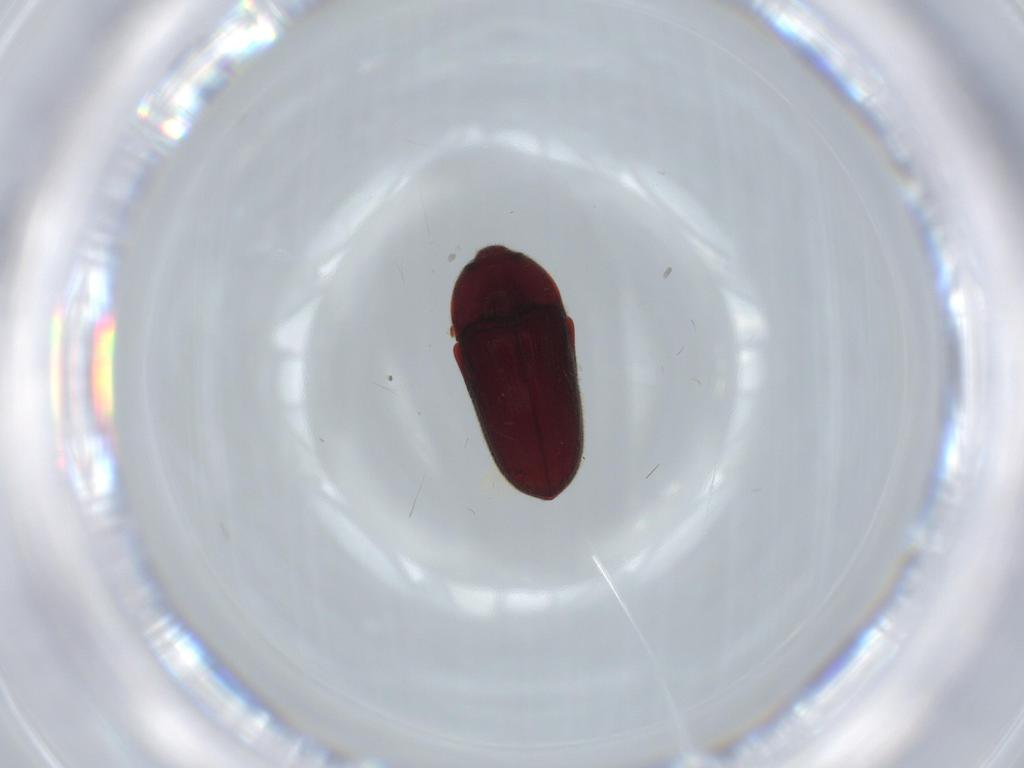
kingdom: Animalia
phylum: Arthropoda
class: Insecta
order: Coleoptera
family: Throscidae
